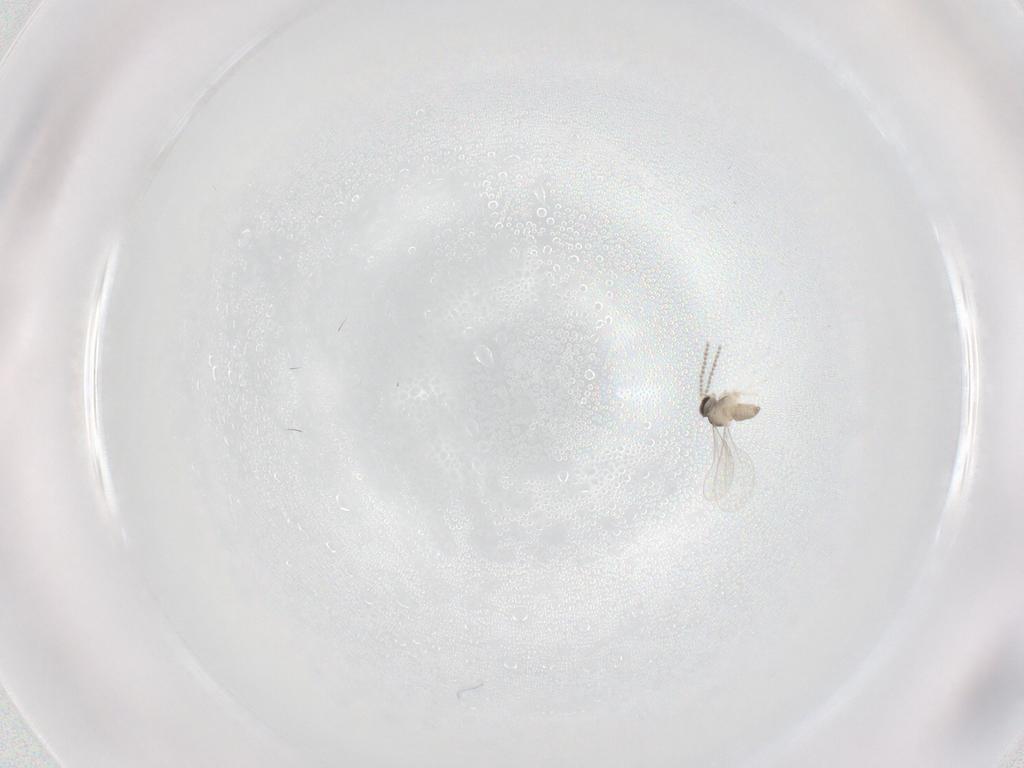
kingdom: Animalia
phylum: Arthropoda
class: Insecta
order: Diptera
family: Cecidomyiidae
